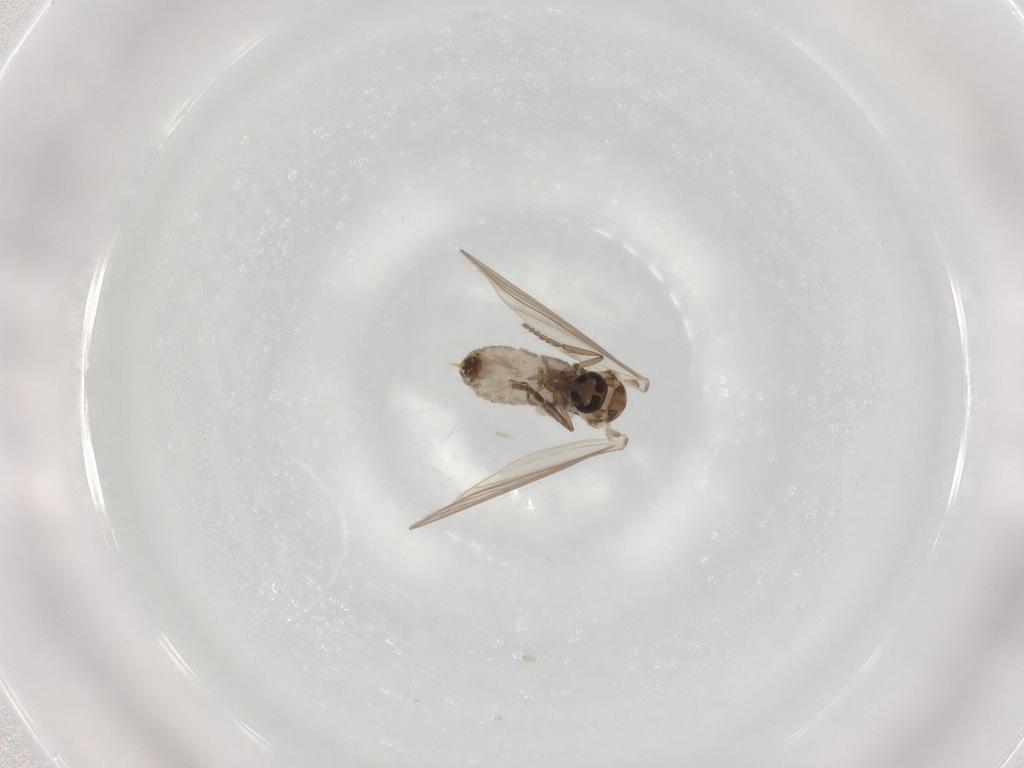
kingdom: Animalia
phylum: Arthropoda
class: Insecta
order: Diptera
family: Psychodidae
